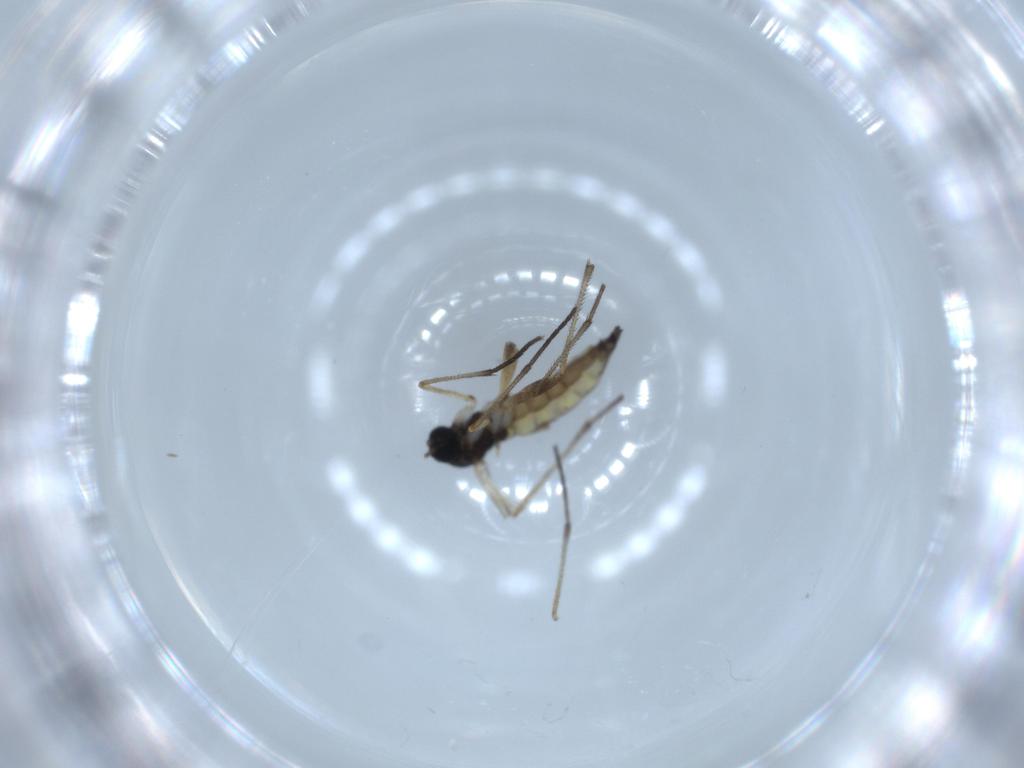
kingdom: Animalia
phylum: Arthropoda
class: Insecta
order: Diptera
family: Sciaridae
